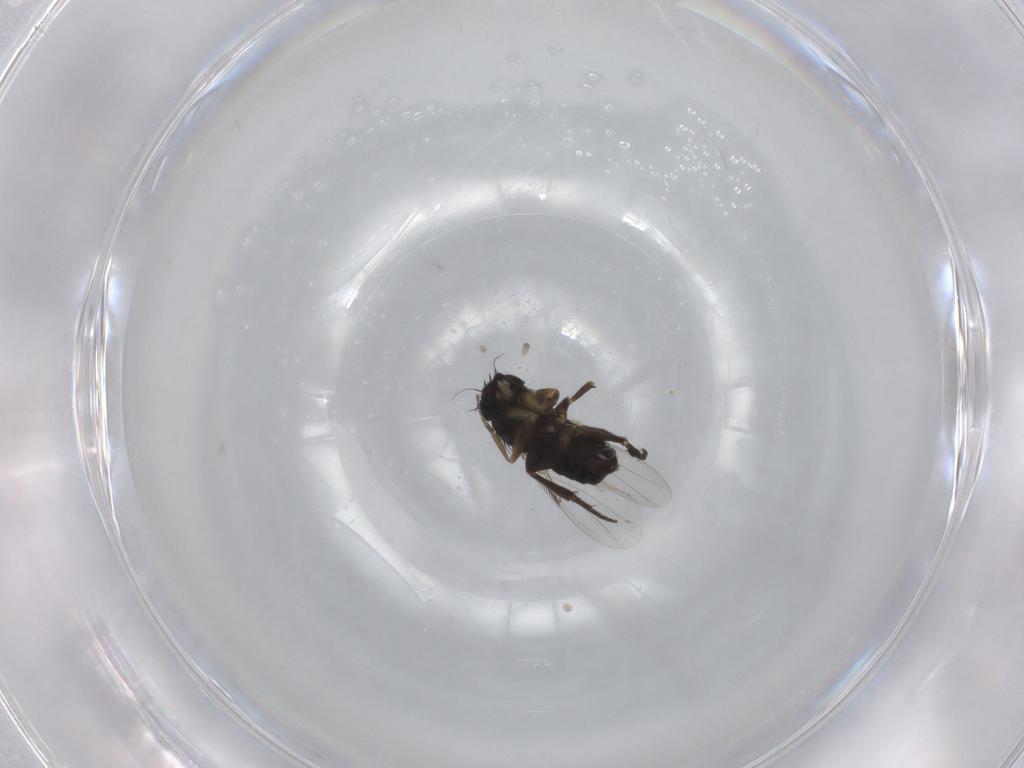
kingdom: Animalia
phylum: Arthropoda
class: Insecta
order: Diptera
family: Phoridae
